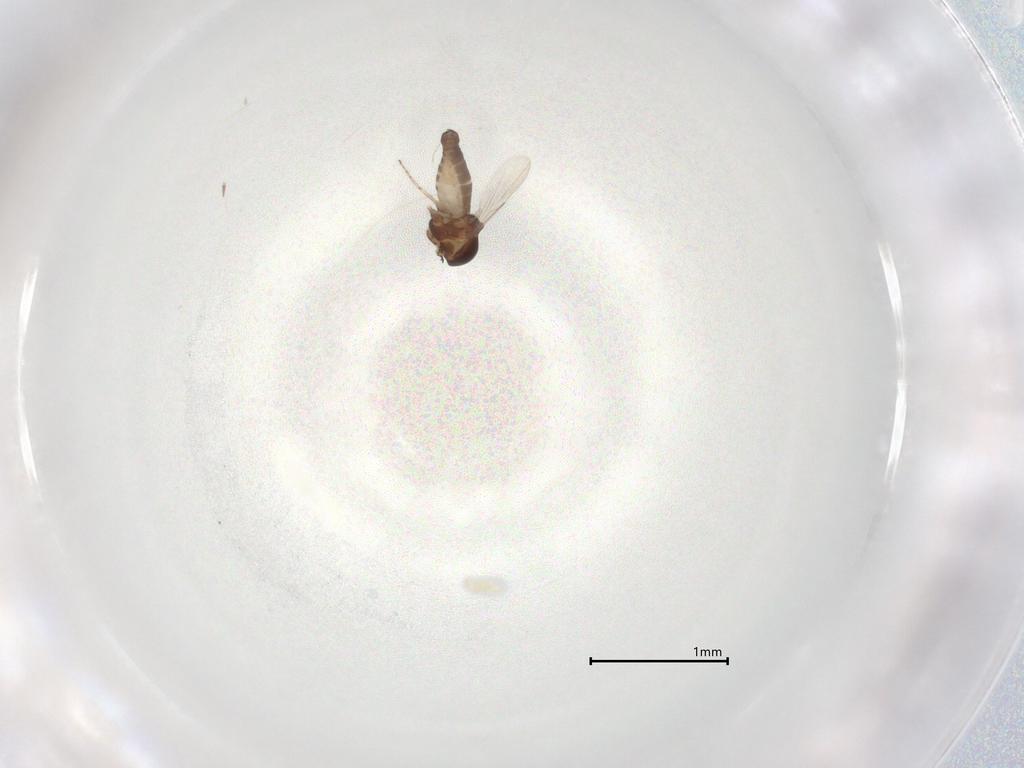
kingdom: Animalia
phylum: Arthropoda
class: Insecta
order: Diptera
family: Ceratopogonidae
